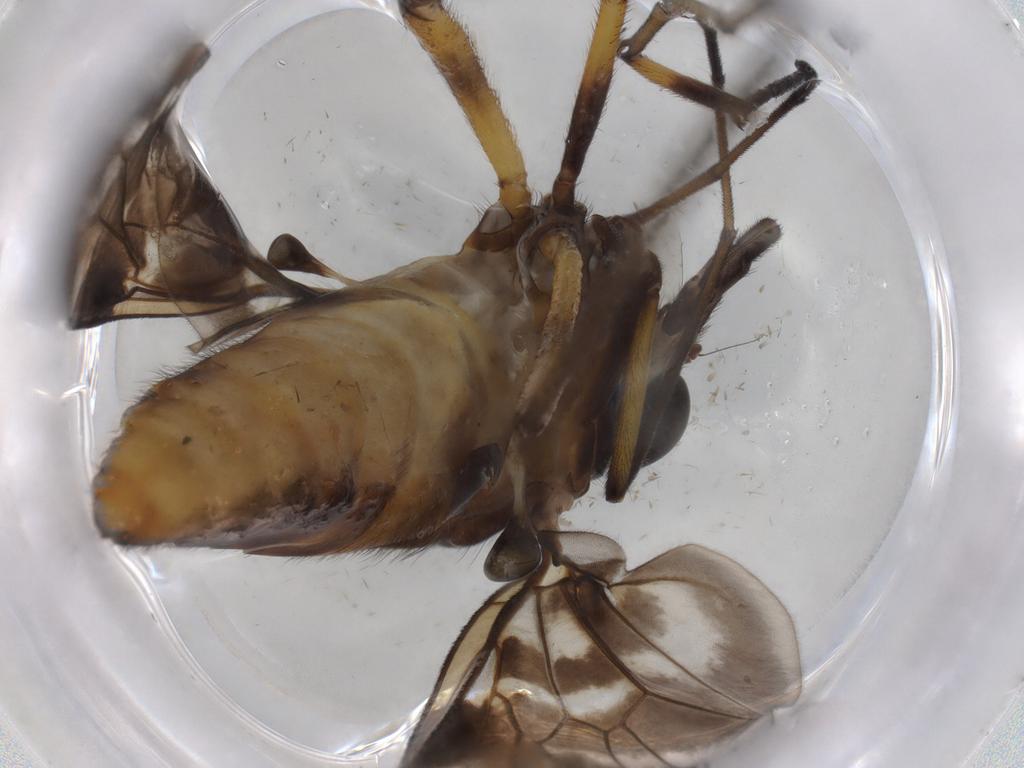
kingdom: Animalia
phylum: Arthropoda
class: Insecta
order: Diptera
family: Chironomidae
